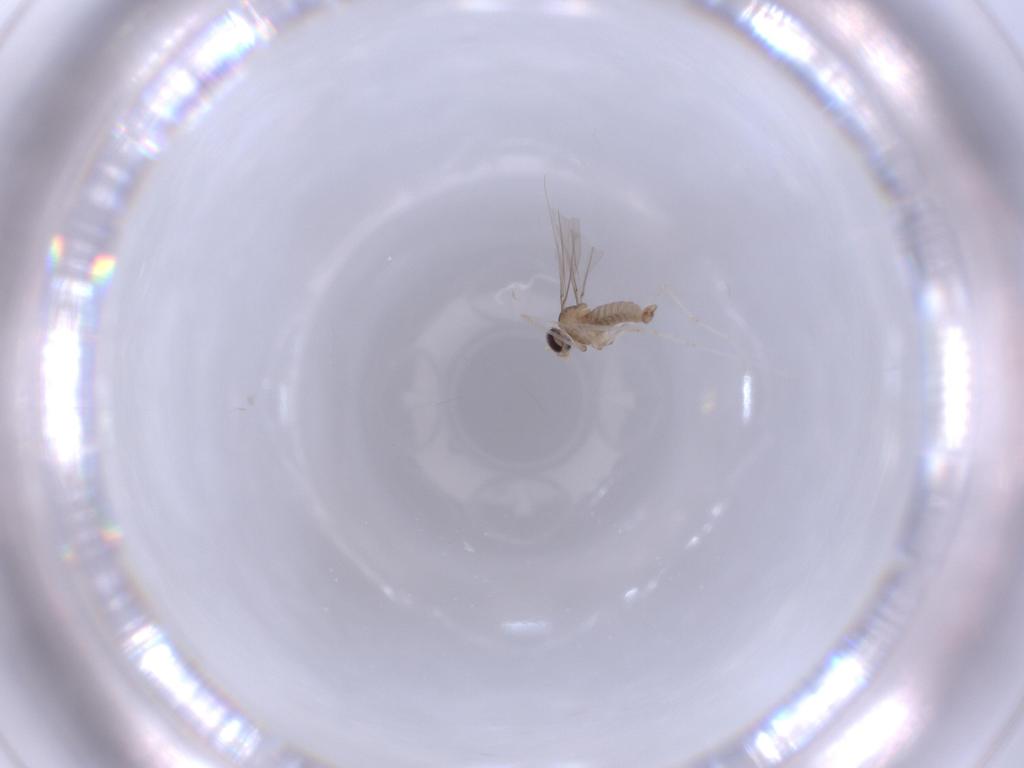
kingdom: Animalia
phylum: Arthropoda
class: Insecta
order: Diptera
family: Cecidomyiidae
